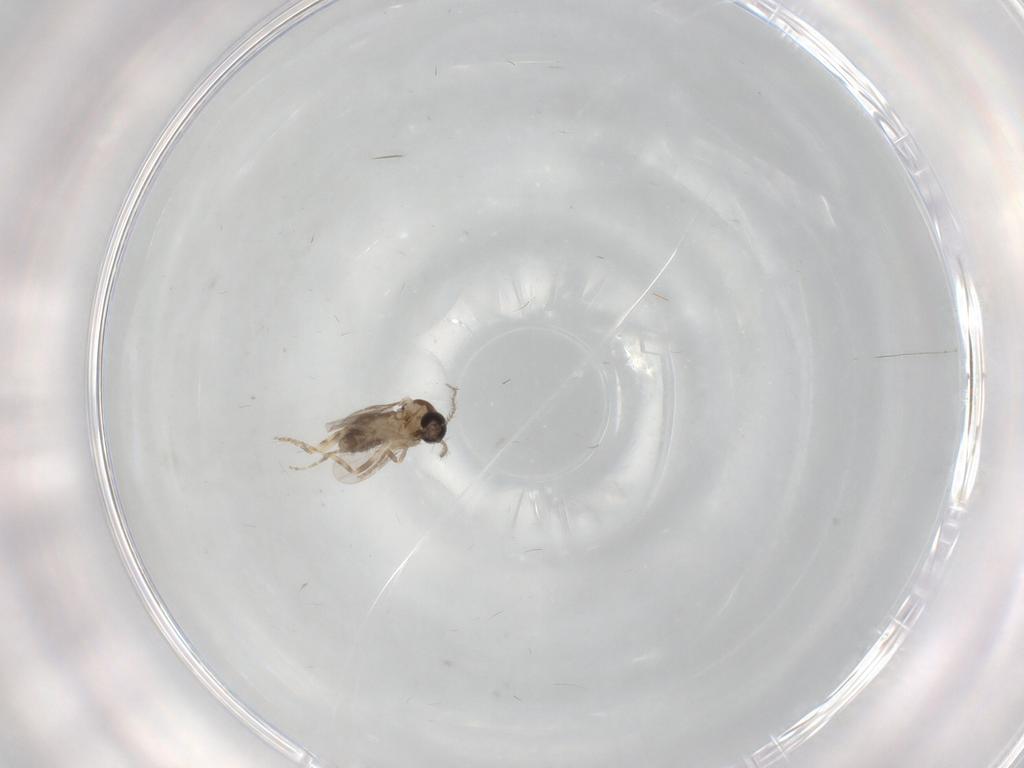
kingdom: Animalia
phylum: Arthropoda
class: Insecta
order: Diptera
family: Ceratopogonidae
